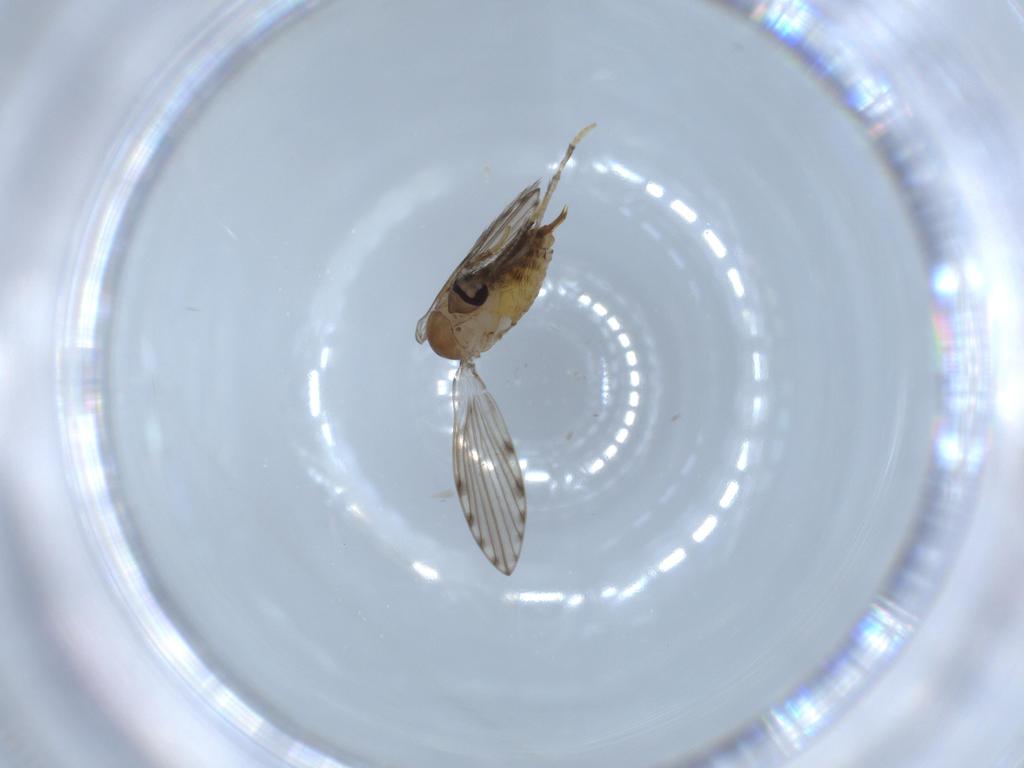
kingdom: Animalia
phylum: Arthropoda
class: Insecta
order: Diptera
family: Psychodidae
